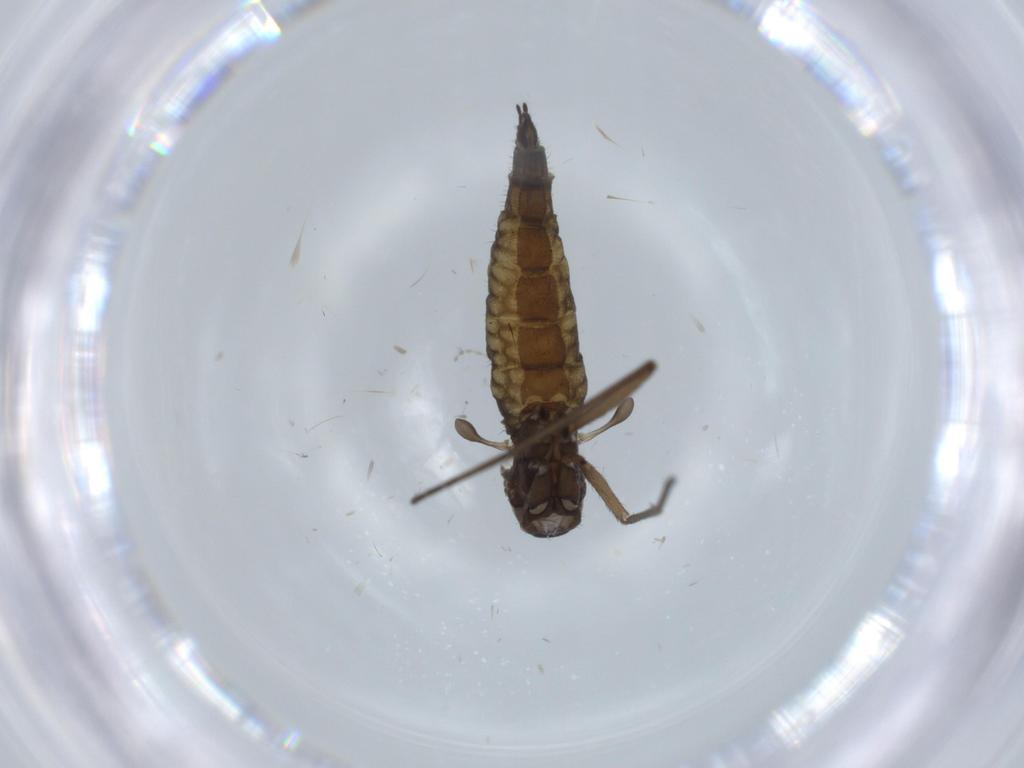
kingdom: Animalia
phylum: Arthropoda
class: Insecta
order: Diptera
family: Sciaridae
